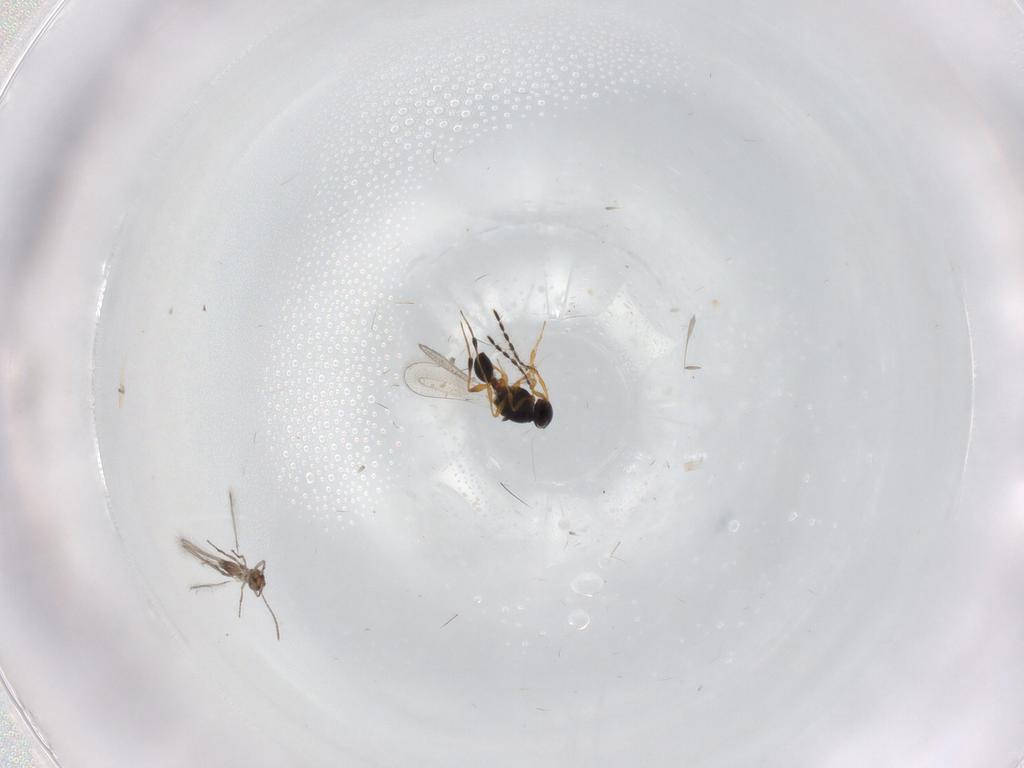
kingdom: Animalia
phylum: Arthropoda
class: Insecta
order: Hymenoptera
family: Mymaridae
